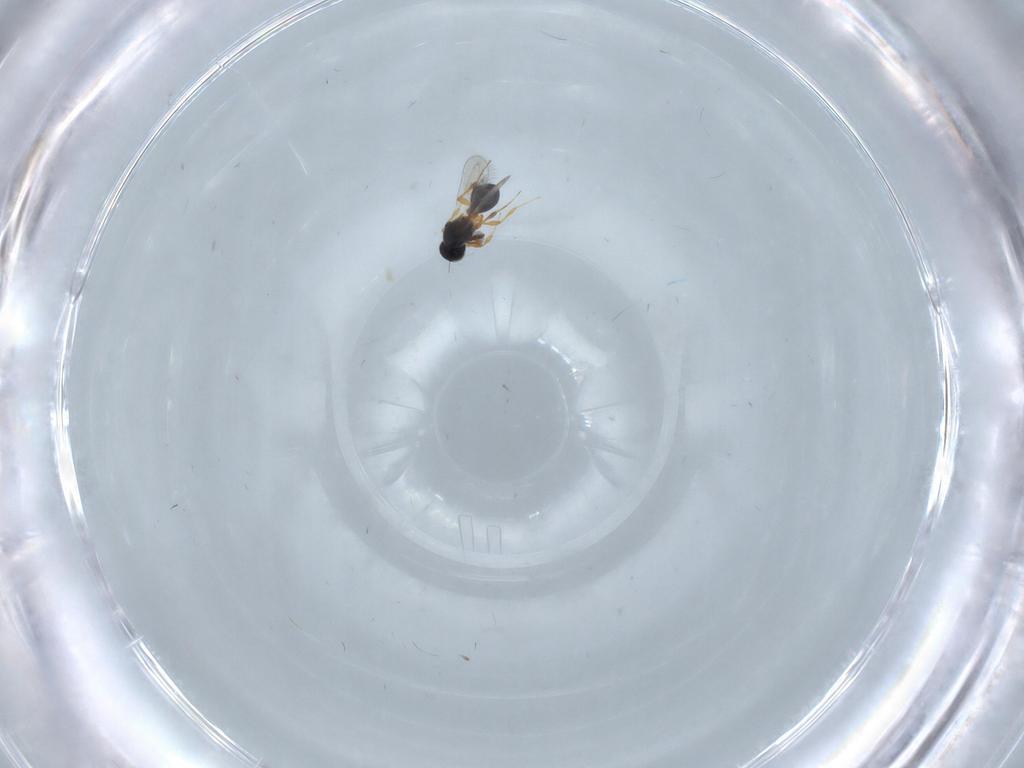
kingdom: Animalia
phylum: Arthropoda
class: Insecta
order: Hymenoptera
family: Platygastridae
